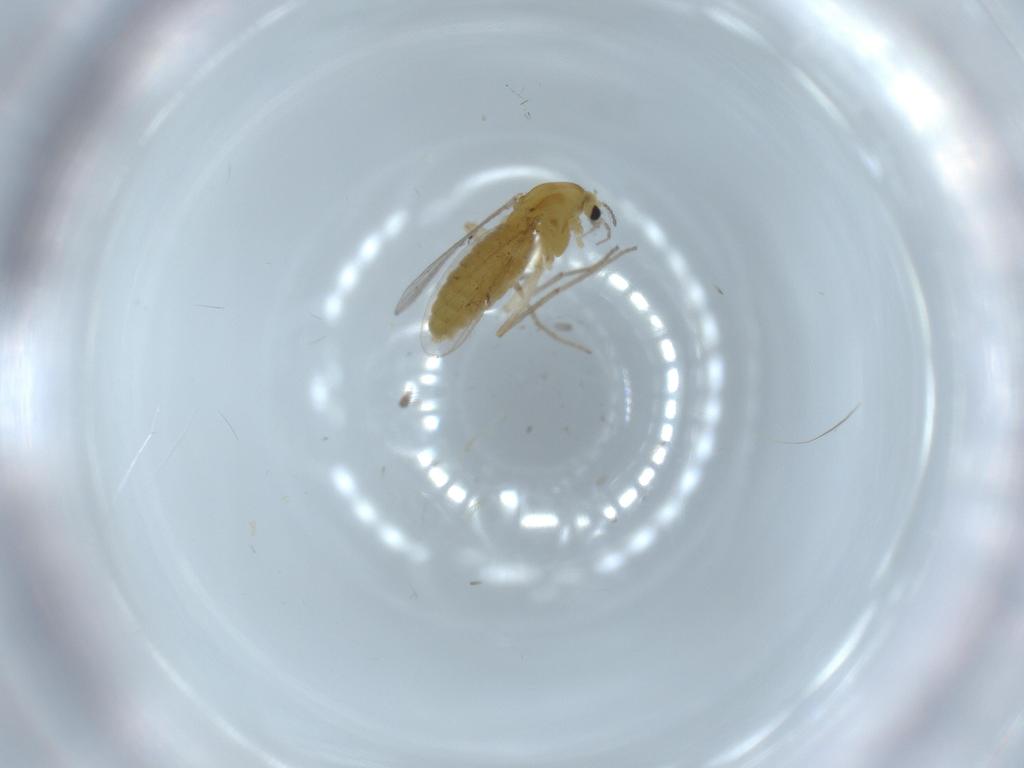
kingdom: Animalia
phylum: Arthropoda
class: Insecta
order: Diptera
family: Chironomidae
